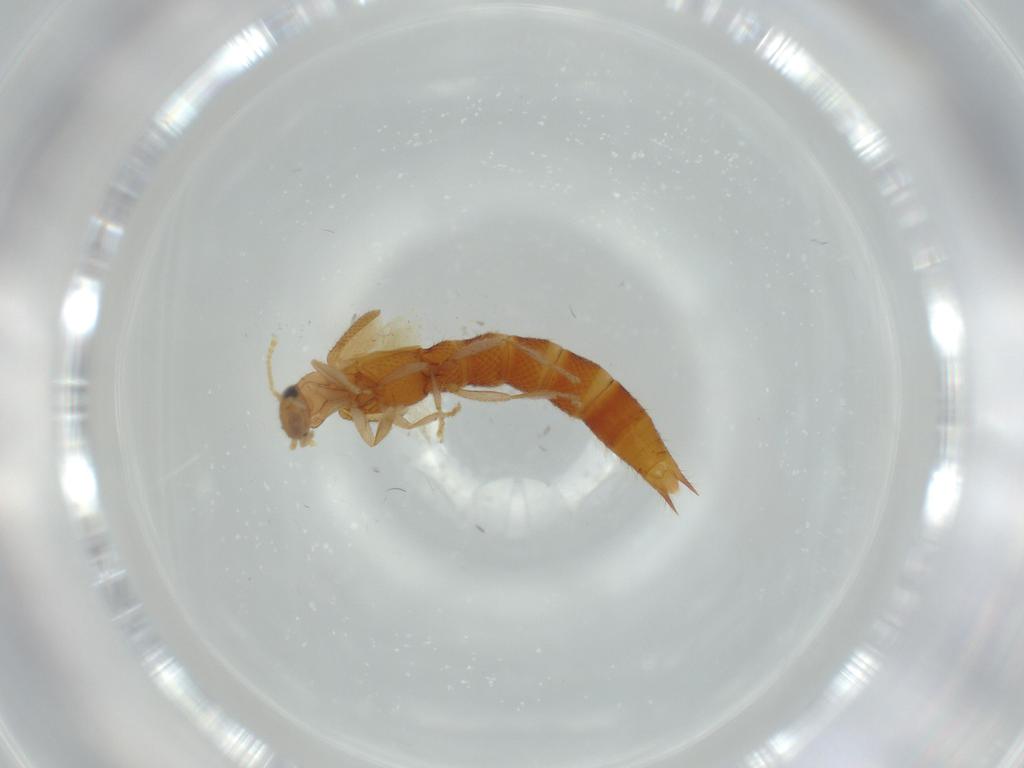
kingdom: Animalia
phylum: Arthropoda
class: Insecta
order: Coleoptera
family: Staphylinidae
